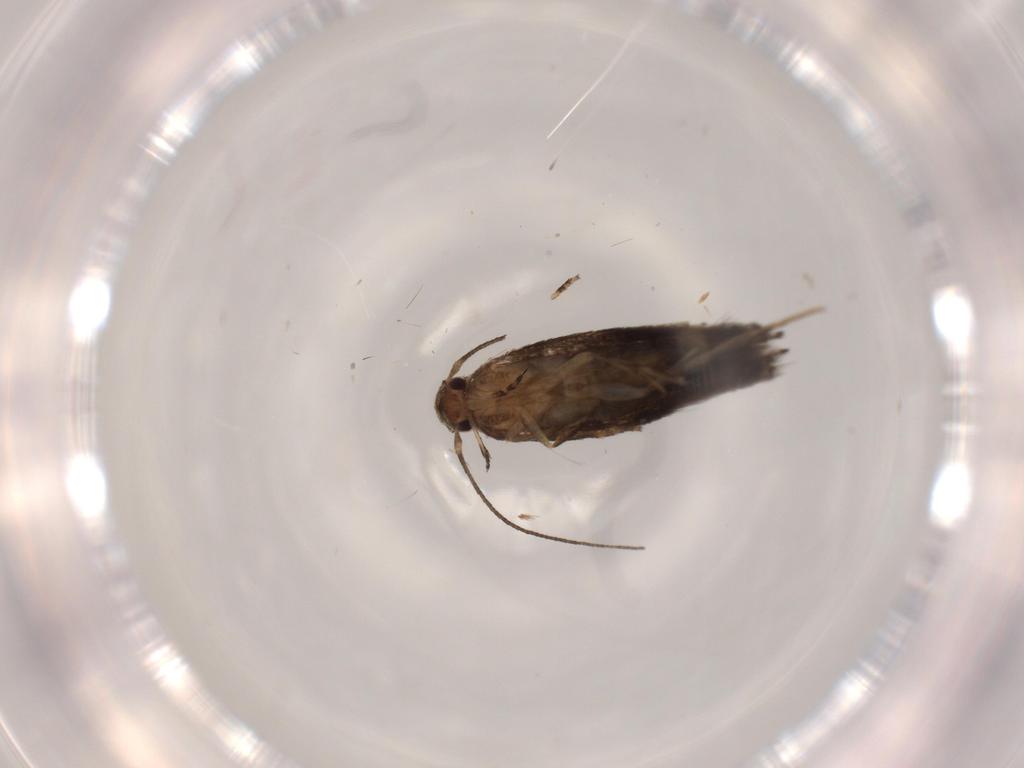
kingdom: Animalia
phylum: Arthropoda
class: Insecta
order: Lepidoptera
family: Gelechiidae
